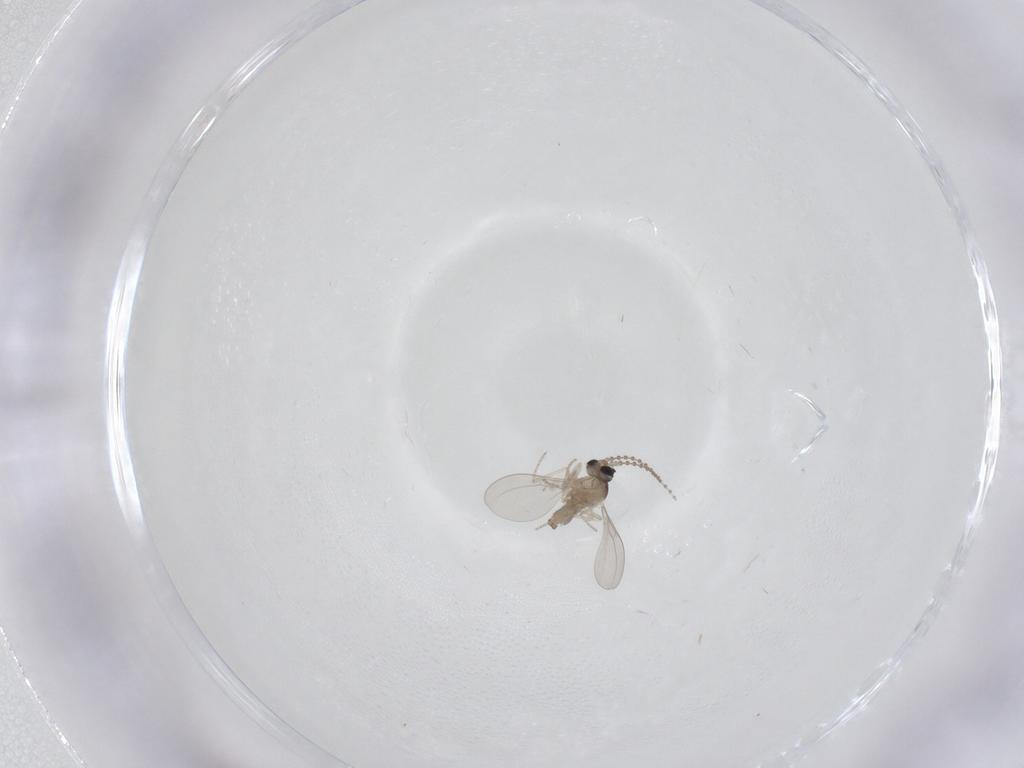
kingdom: Animalia
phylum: Arthropoda
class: Insecta
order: Diptera
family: Cecidomyiidae
